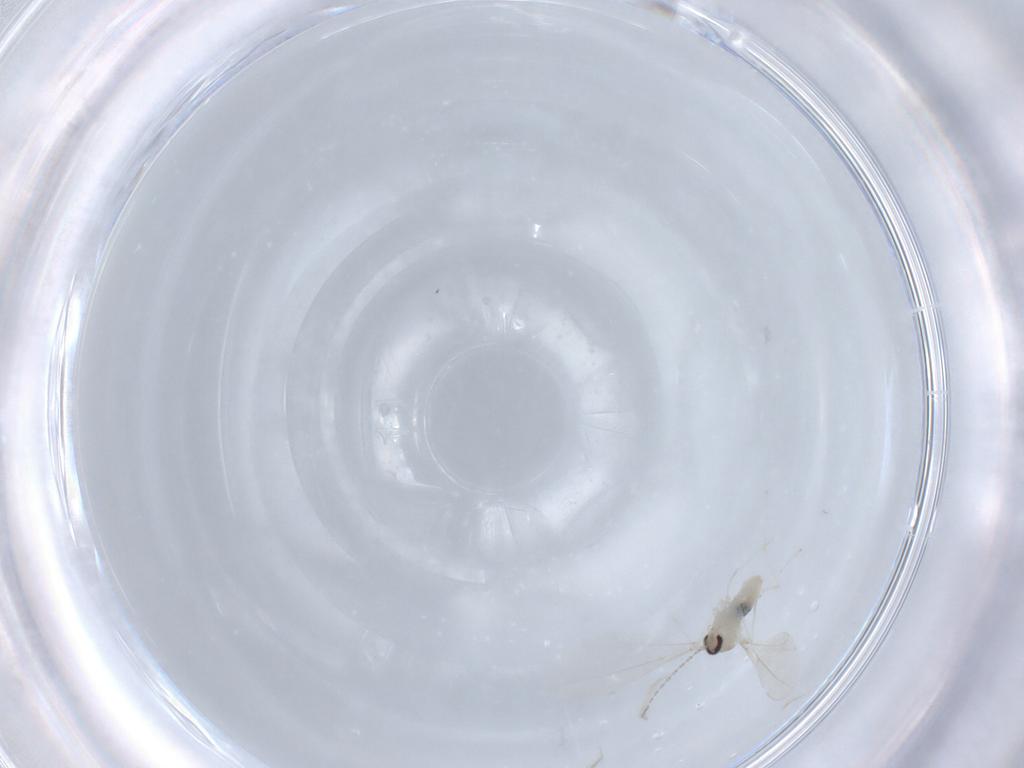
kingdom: Animalia
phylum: Arthropoda
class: Insecta
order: Diptera
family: Cecidomyiidae
